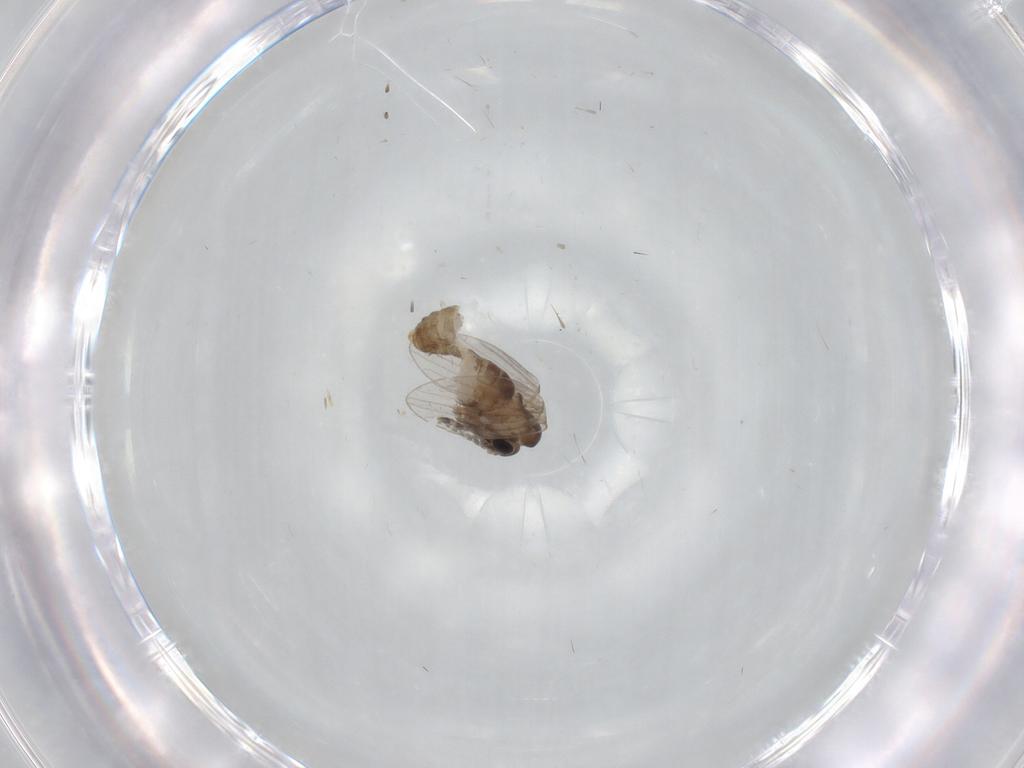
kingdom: Animalia
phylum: Arthropoda
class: Insecta
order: Diptera
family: Psychodidae
